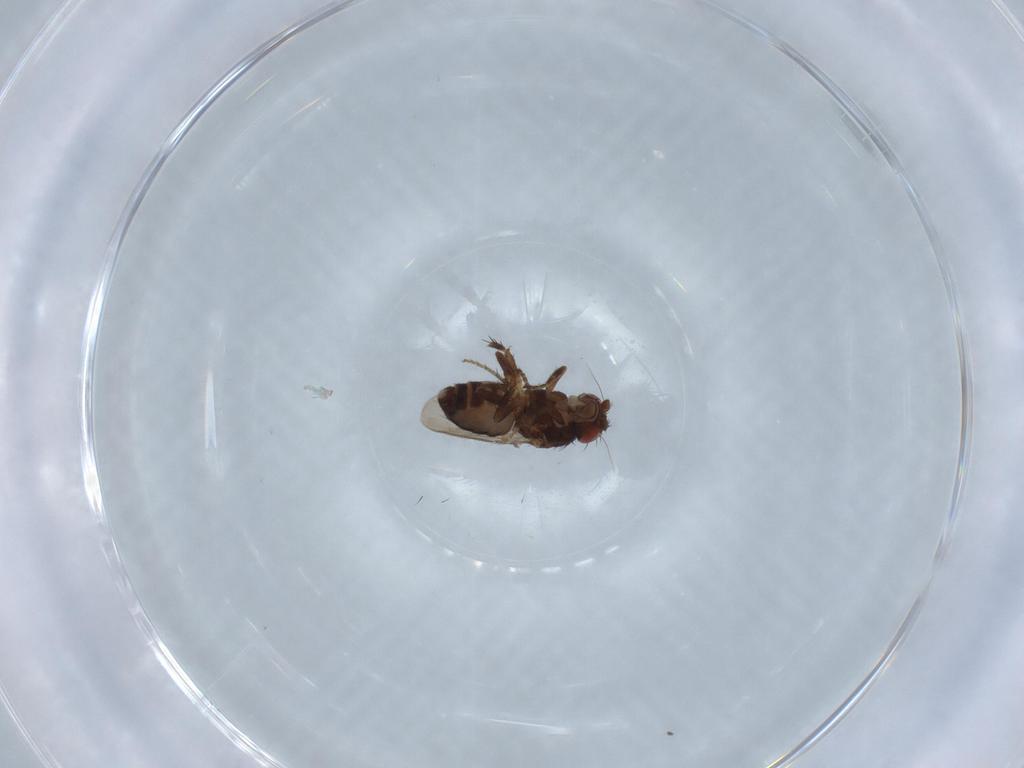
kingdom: Animalia
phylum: Arthropoda
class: Insecta
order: Diptera
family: Sphaeroceridae
